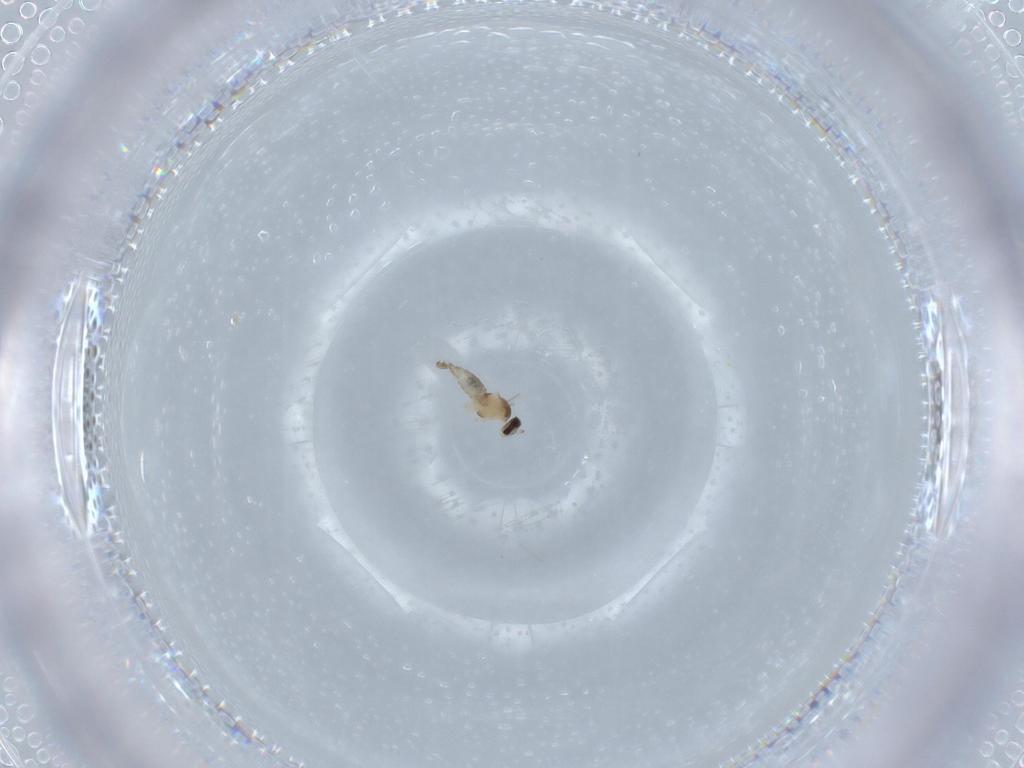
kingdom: Animalia
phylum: Arthropoda
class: Insecta
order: Diptera
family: Cecidomyiidae
